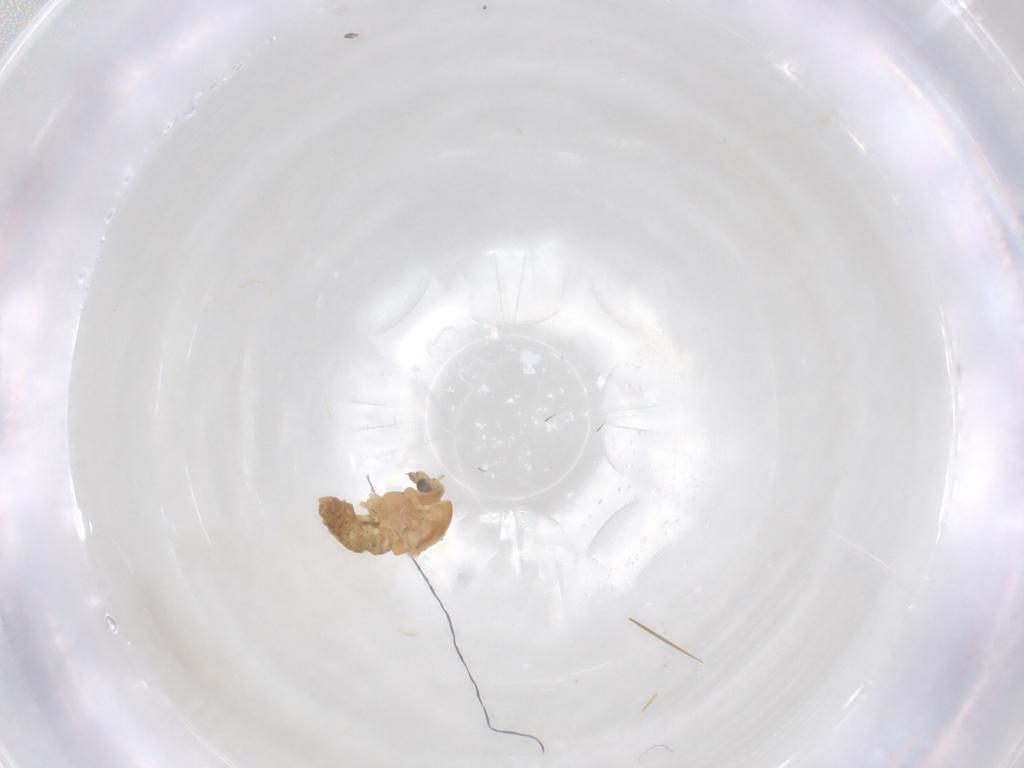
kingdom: Animalia
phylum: Arthropoda
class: Insecta
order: Diptera
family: Chironomidae
